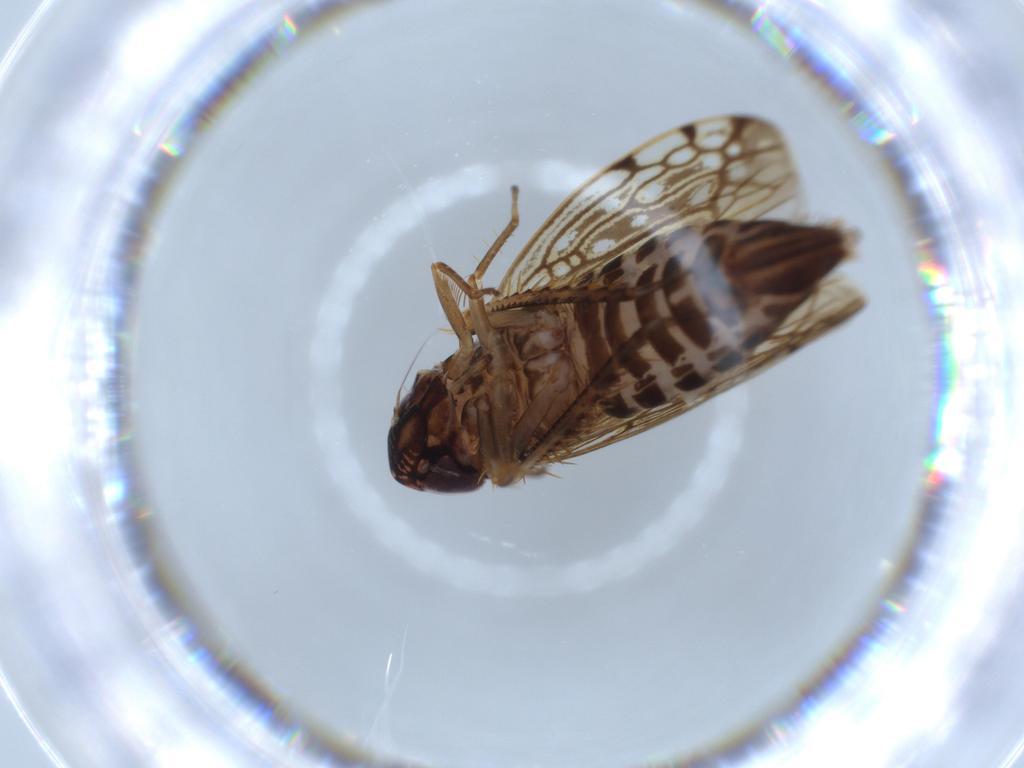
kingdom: Animalia
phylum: Arthropoda
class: Insecta
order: Hemiptera
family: Cicadellidae
